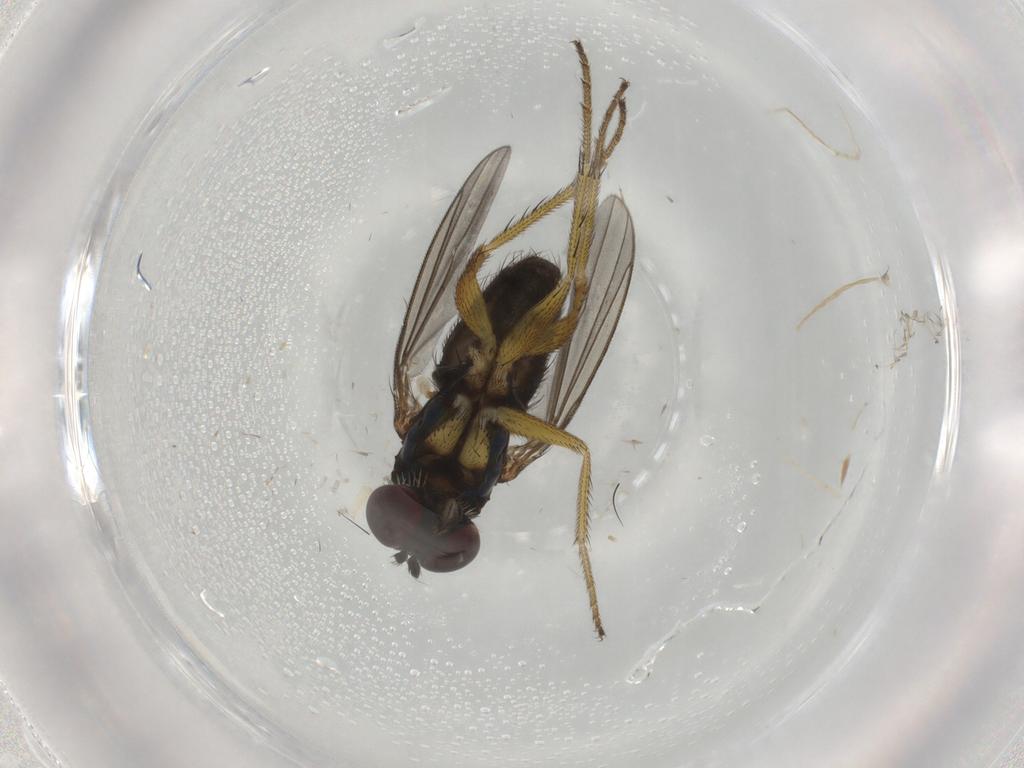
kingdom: Animalia
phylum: Arthropoda
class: Insecta
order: Diptera
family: Dolichopodidae
